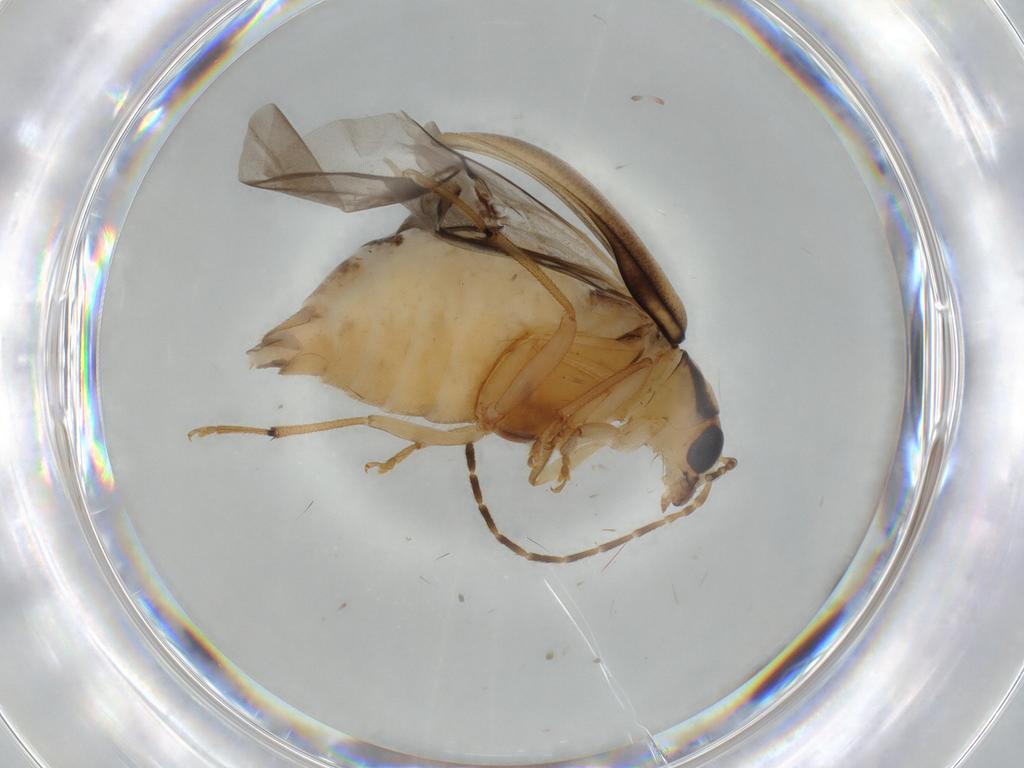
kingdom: Animalia
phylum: Arthropoda
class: Insecta
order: Coleoptera
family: Chrysomelidae
